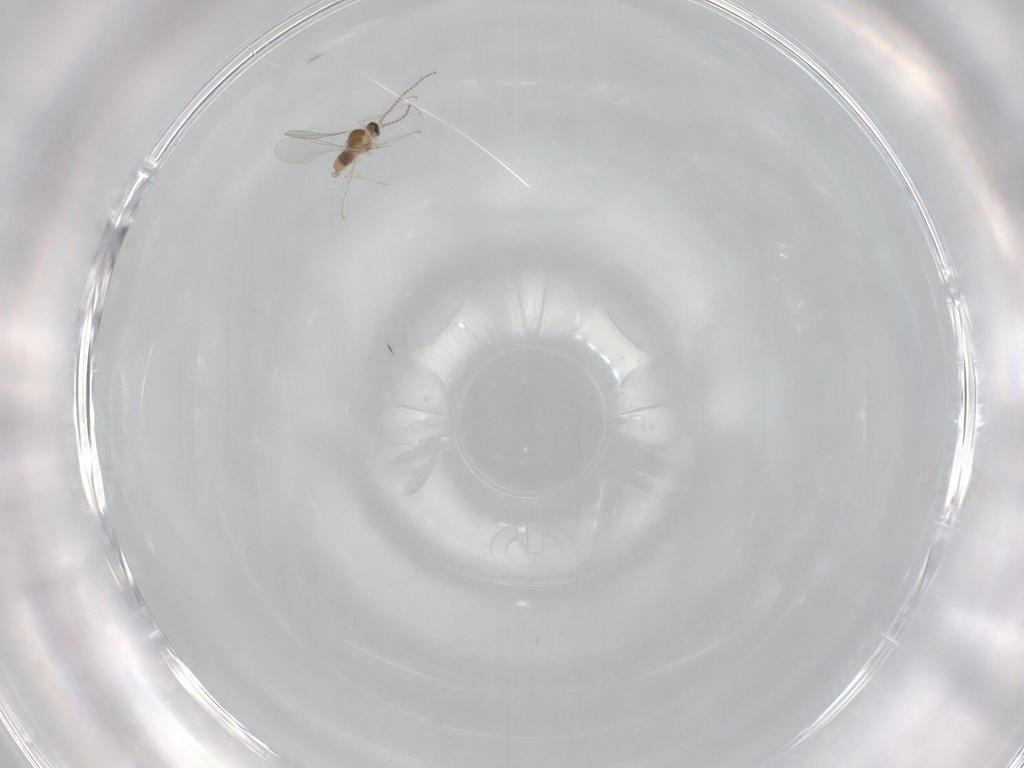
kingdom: Animalia
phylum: Arthropoda
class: Insecta
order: Diptera
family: Cecidomyiidae
